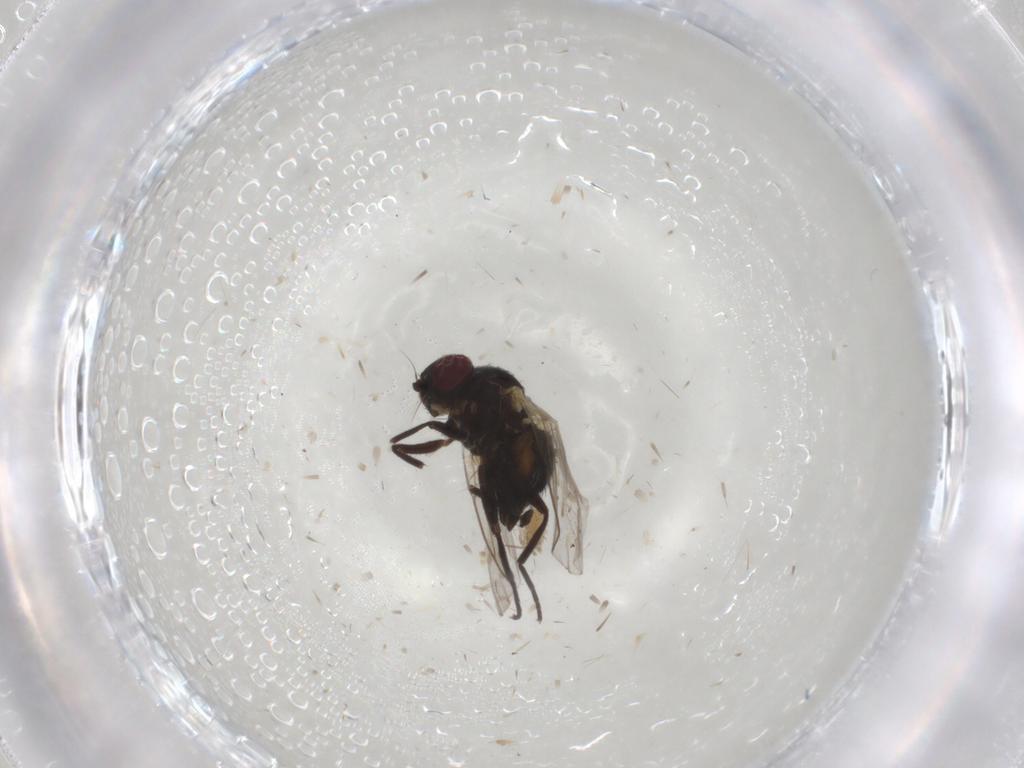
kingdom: Animalia
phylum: Arthropoda
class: Insecta
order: Diptera
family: Agromyzidae
